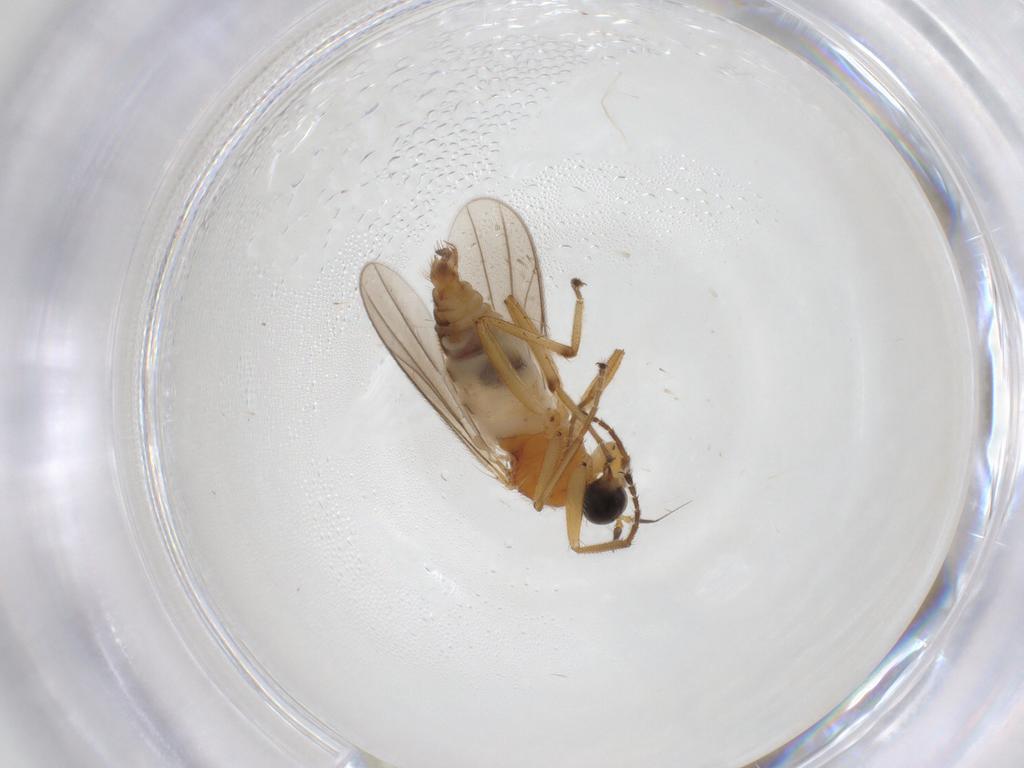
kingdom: Animalia
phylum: Arthropoda
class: Insecta
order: Diptera
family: Hybotidae
